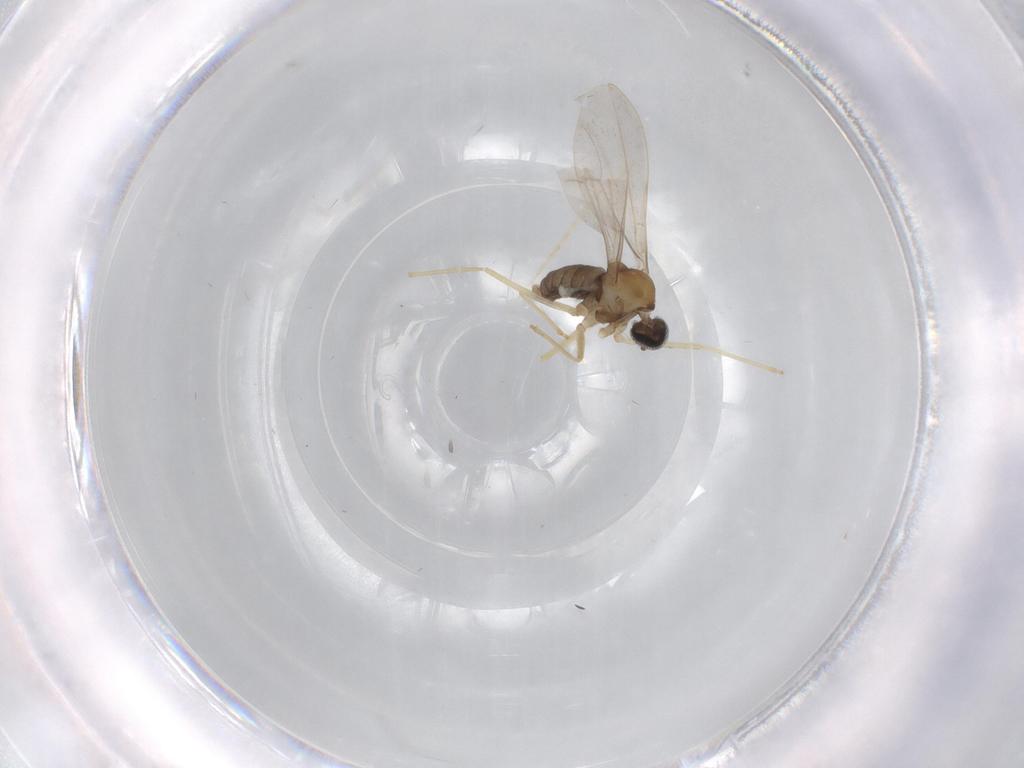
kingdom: Animalia
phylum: Arthropoda
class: Insecta
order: Diptera
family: Cecidomyiidae
